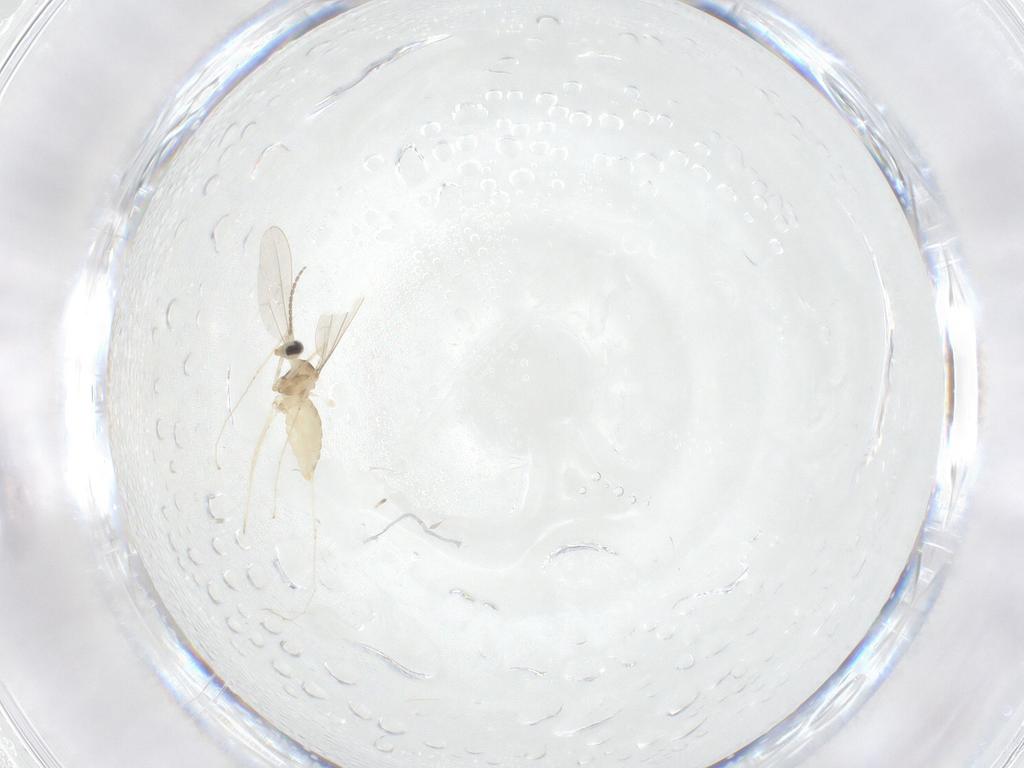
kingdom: Animalia
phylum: Arthropoda
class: Insecta
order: Diptera
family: Cecidomyiidae
